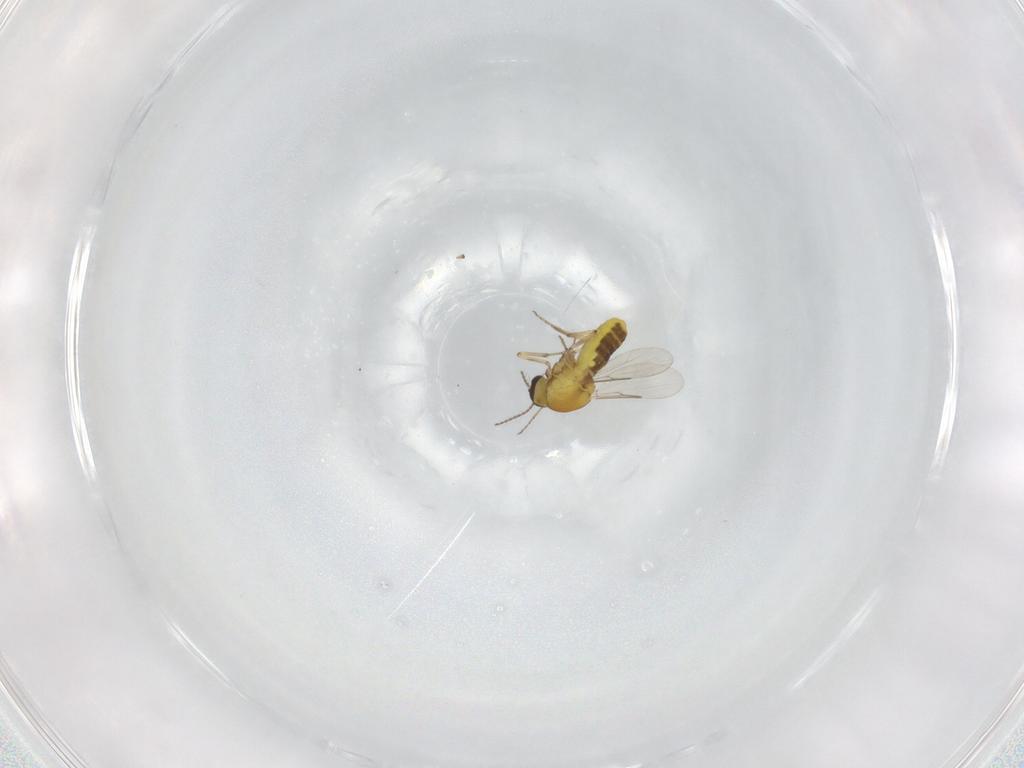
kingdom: Animalia
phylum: Arthropoda
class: Insecta
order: Diptera
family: Ceratopogonidae
